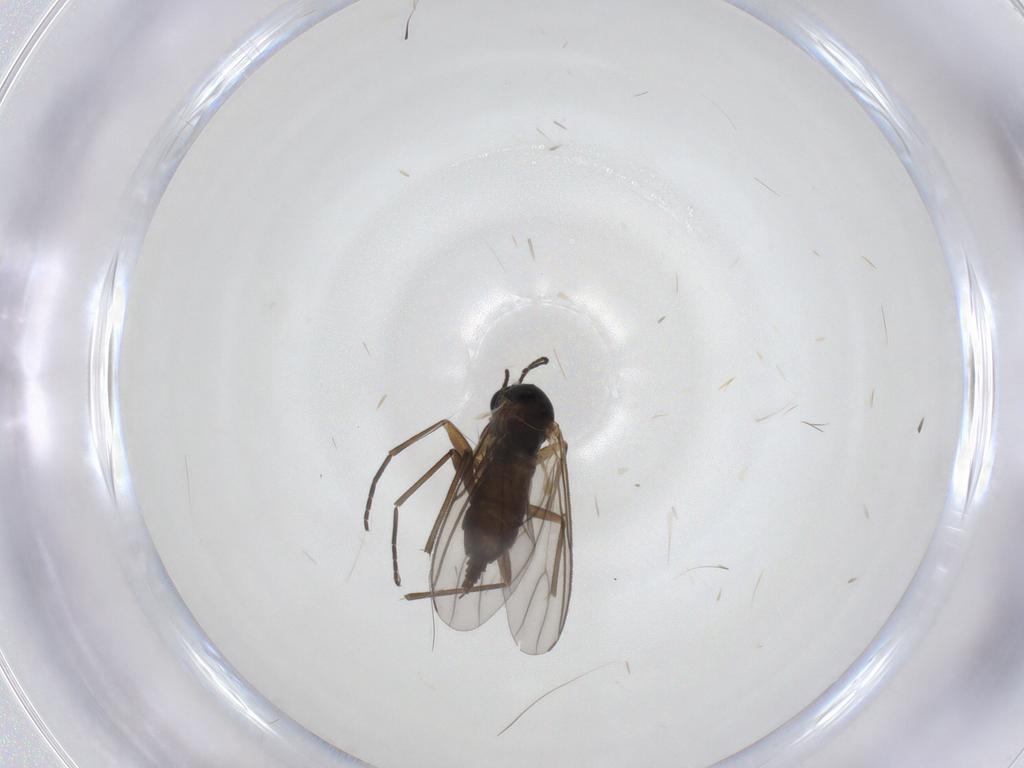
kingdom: Animalia
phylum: Arthropoda
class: Insecta
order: Diptera
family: Sciaridae
